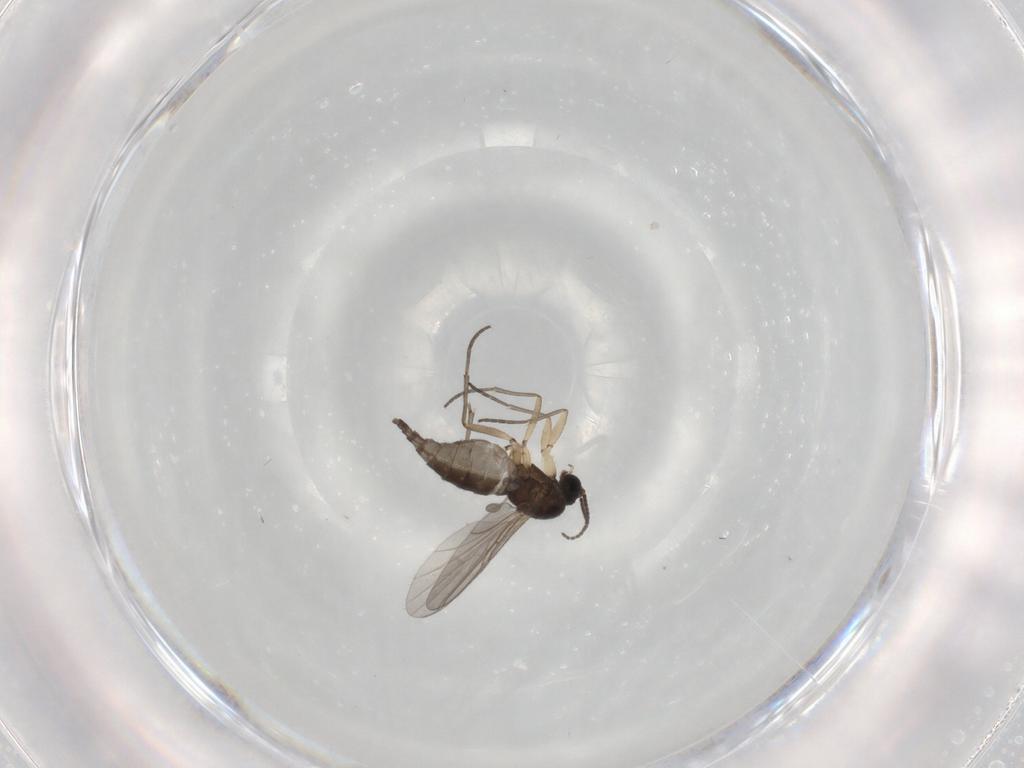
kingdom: Animalia
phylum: Arthropoda
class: Insecta
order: Diptera
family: Sciaridae
